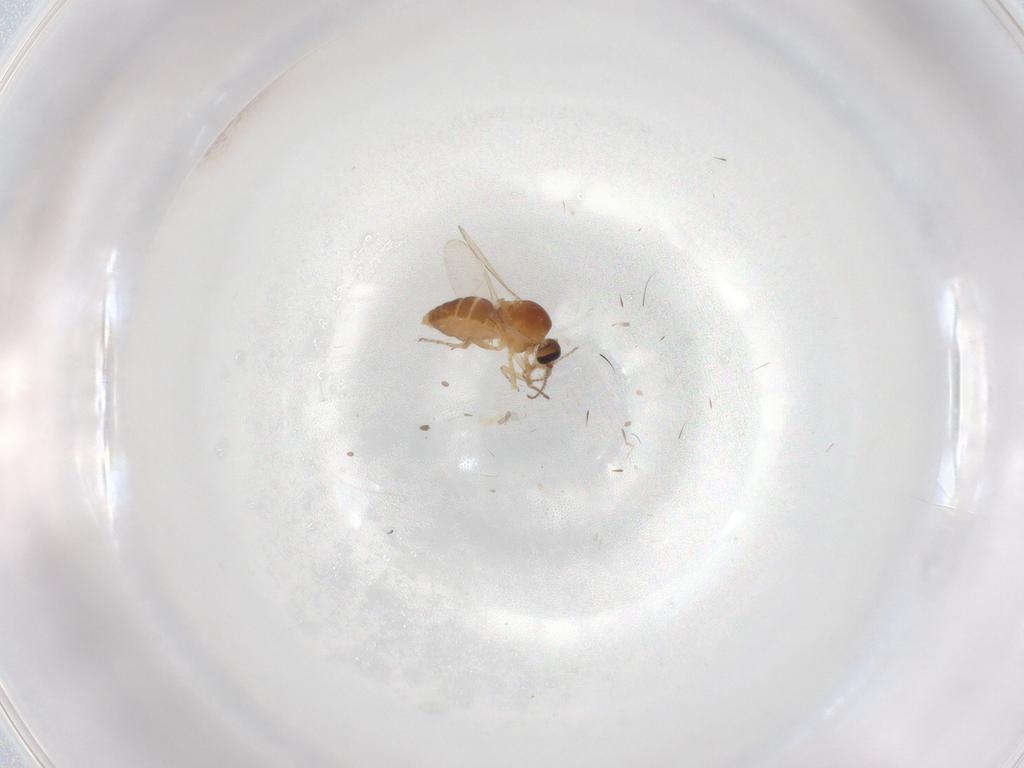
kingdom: Animalia
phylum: Arthropoda
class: Insecta
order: Diptera
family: Ceratopogonidae
